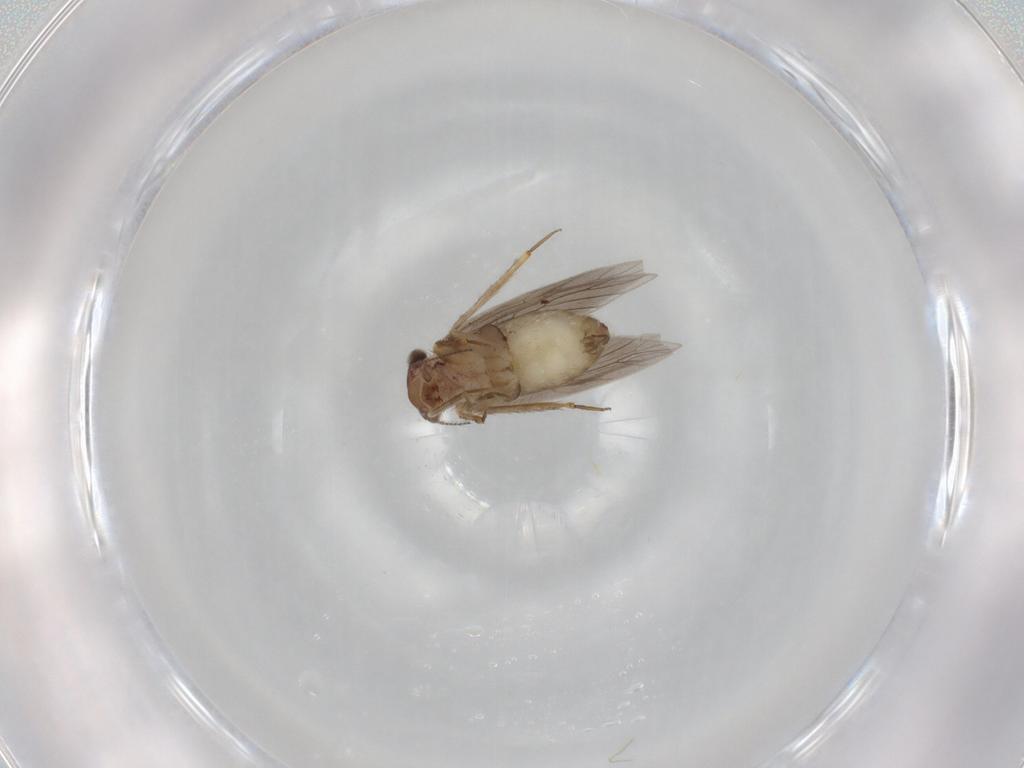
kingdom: Animalia
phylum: Arthropoda
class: Insecta
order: Psocodea
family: Lepidopsocidae
